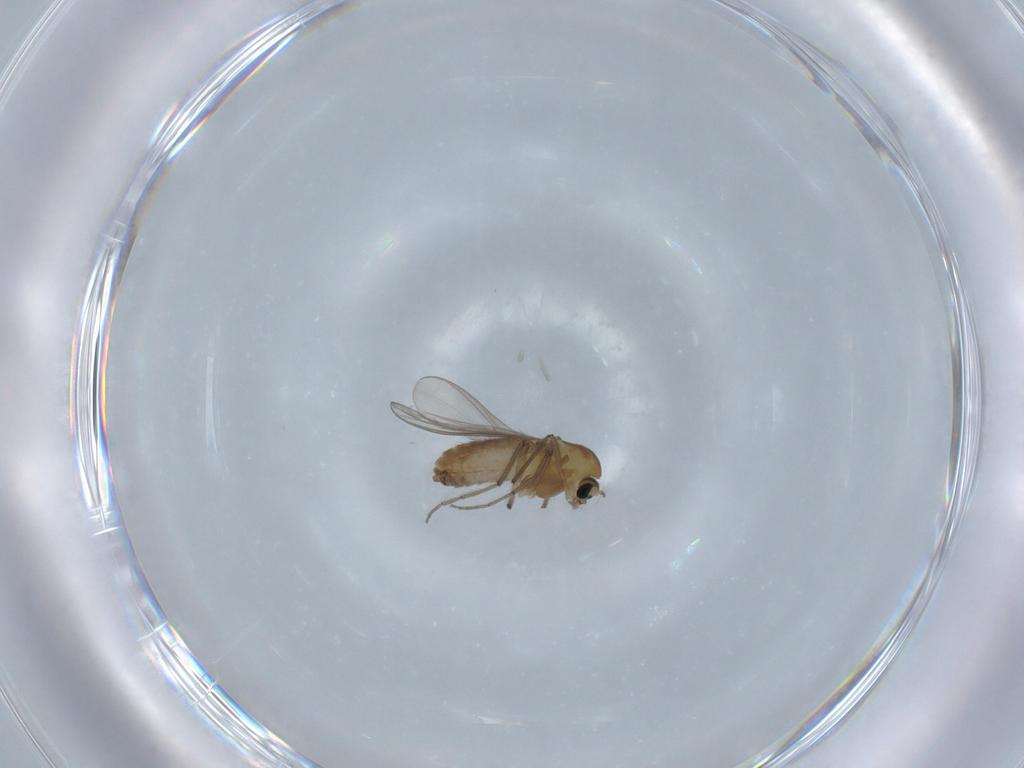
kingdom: Animalia
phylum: Arthropoda
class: Insecta
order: Diptera
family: Chironomidae
